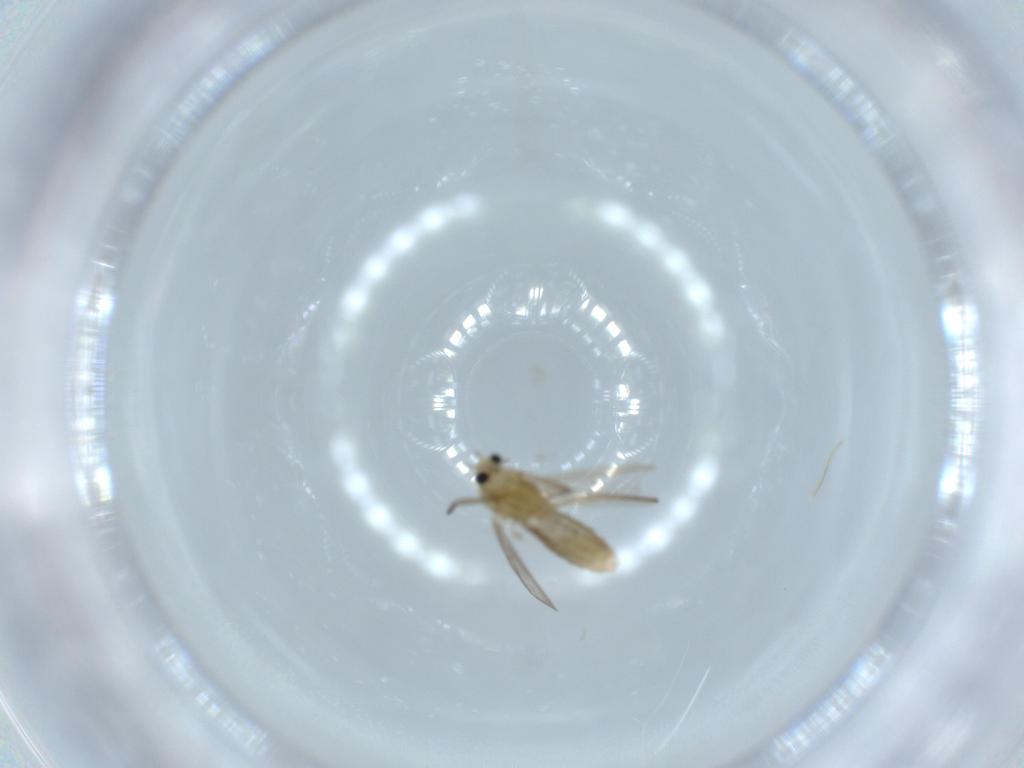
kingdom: Animalia
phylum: Arthropoda
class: Insecta
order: Diptera
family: Chironomidae
